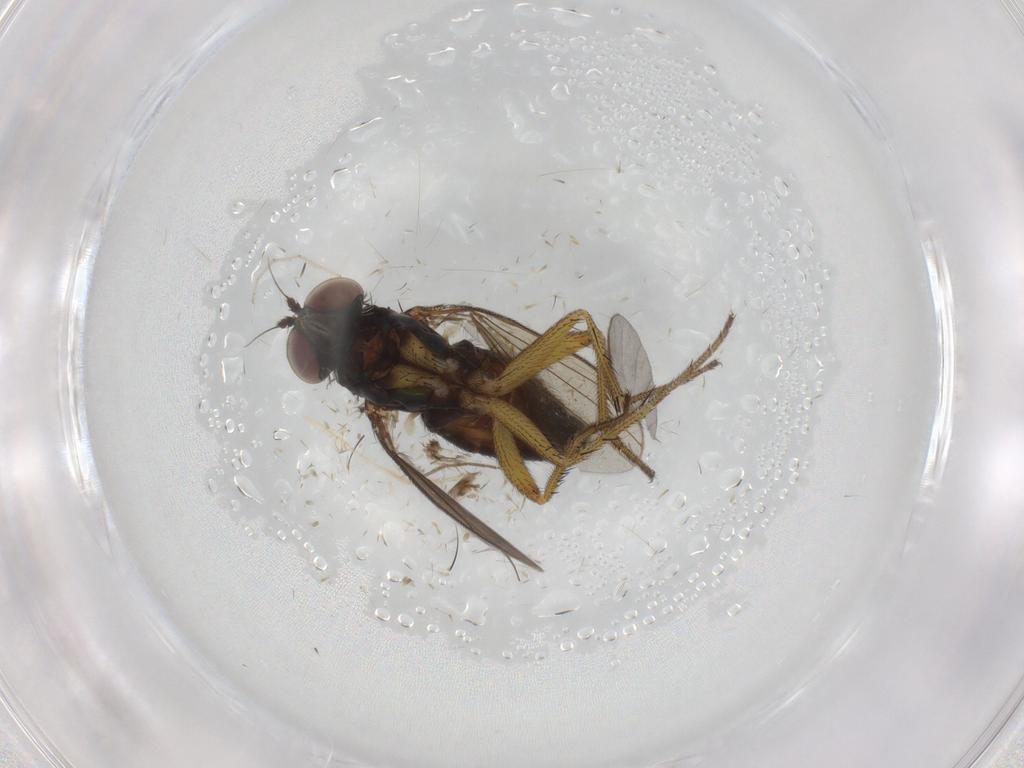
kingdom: Animalia
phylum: Arthropoda
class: Insecta
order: Diptera
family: Dolichopodidae
